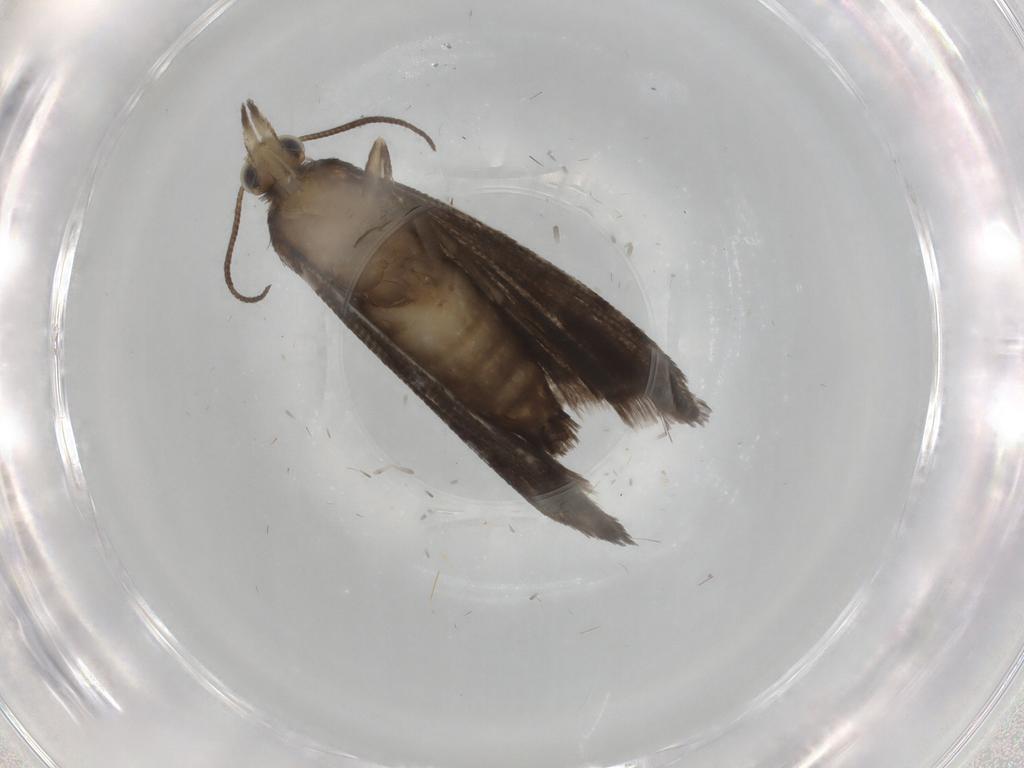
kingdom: Animalia
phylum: Arthropoda
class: Insecta
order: Lepidoptera
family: Tortricidae
